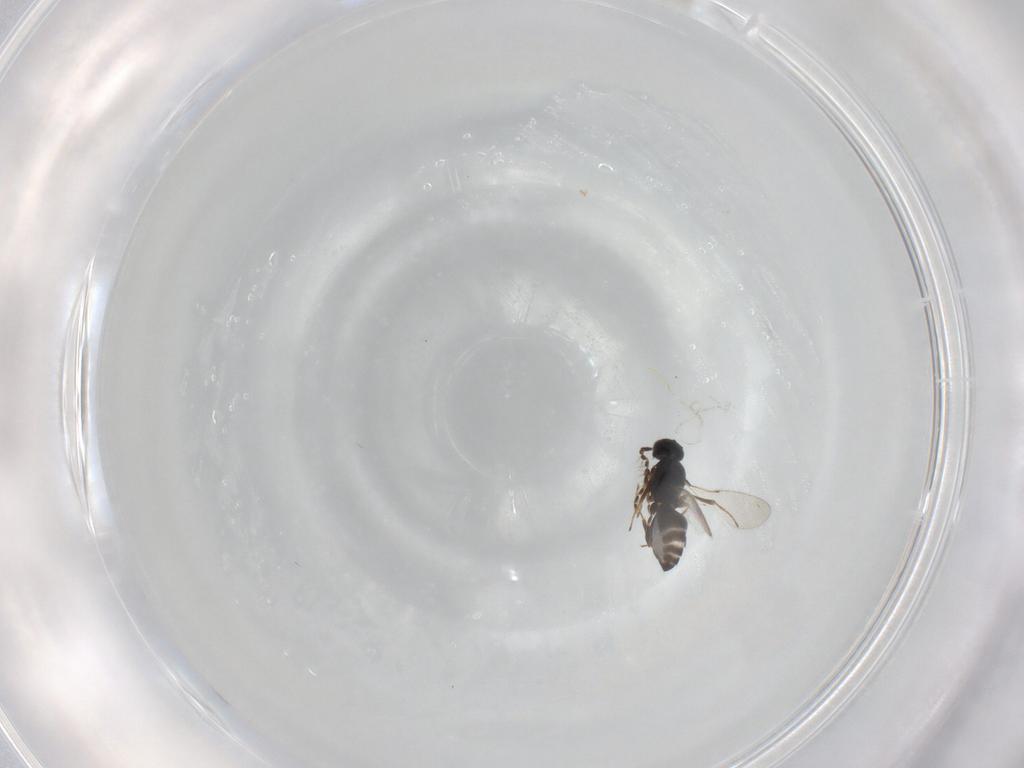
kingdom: Animalia
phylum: Arthropoda
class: Insecta
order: Hymenoptera
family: Platygastridae
